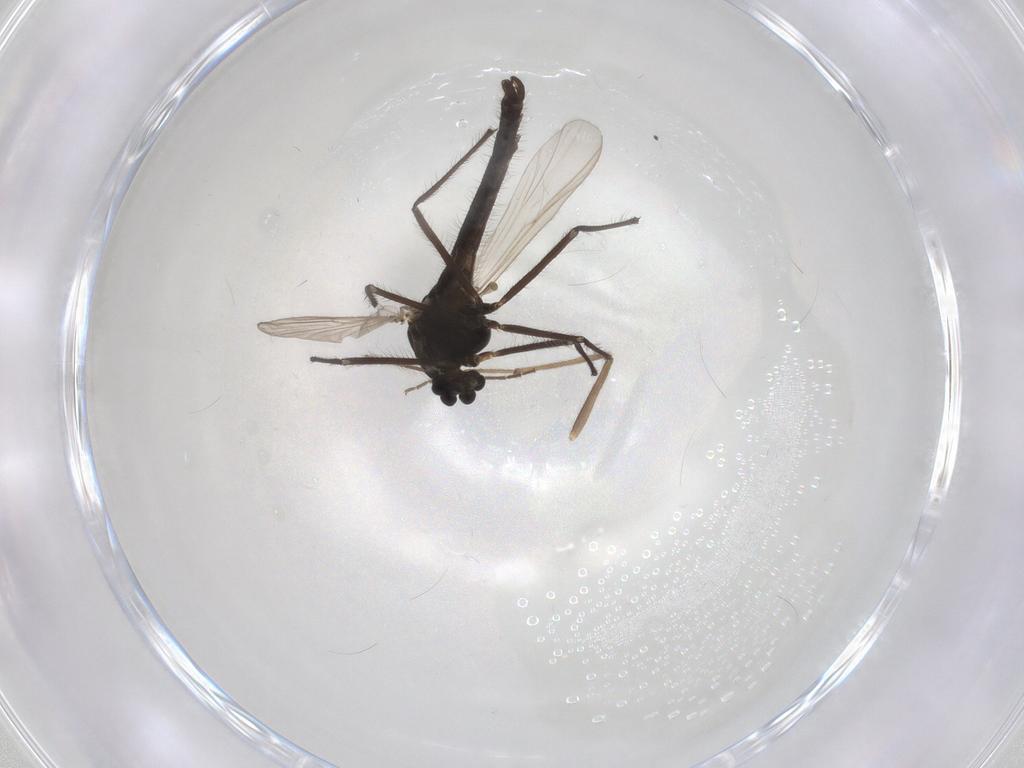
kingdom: Animalia
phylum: Arthropoda
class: Insecta
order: Diptera
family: Chironomidae
